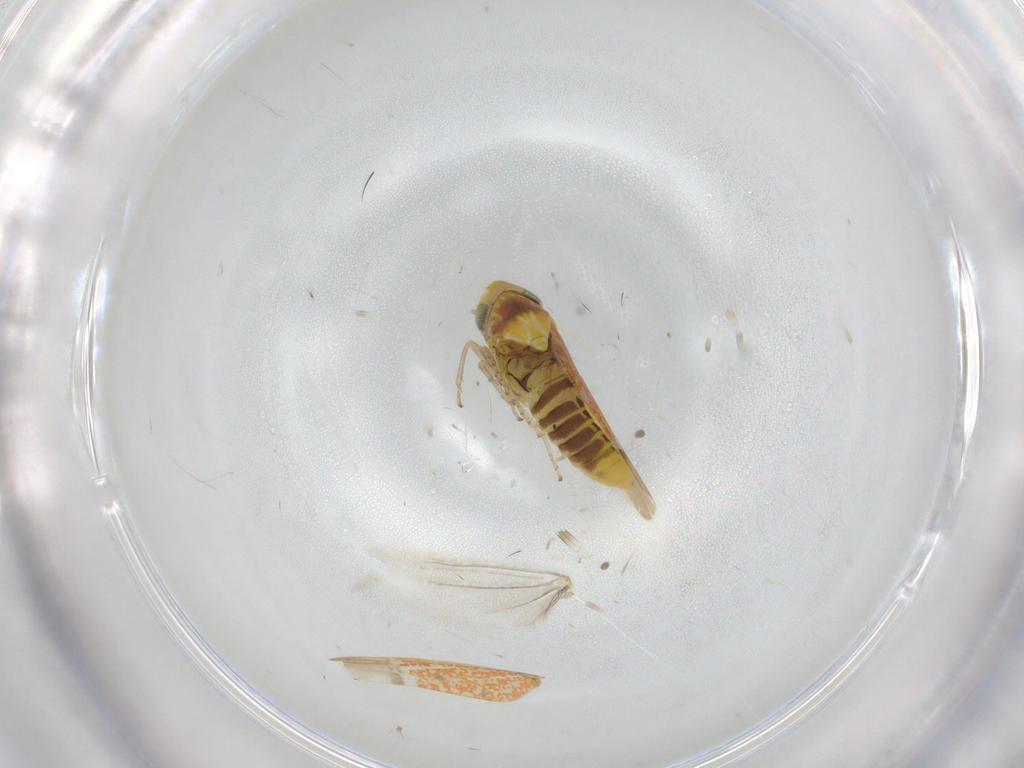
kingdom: Animalia
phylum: Arthropoda
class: Insecta
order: Hemiptera
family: Cicadellidae
